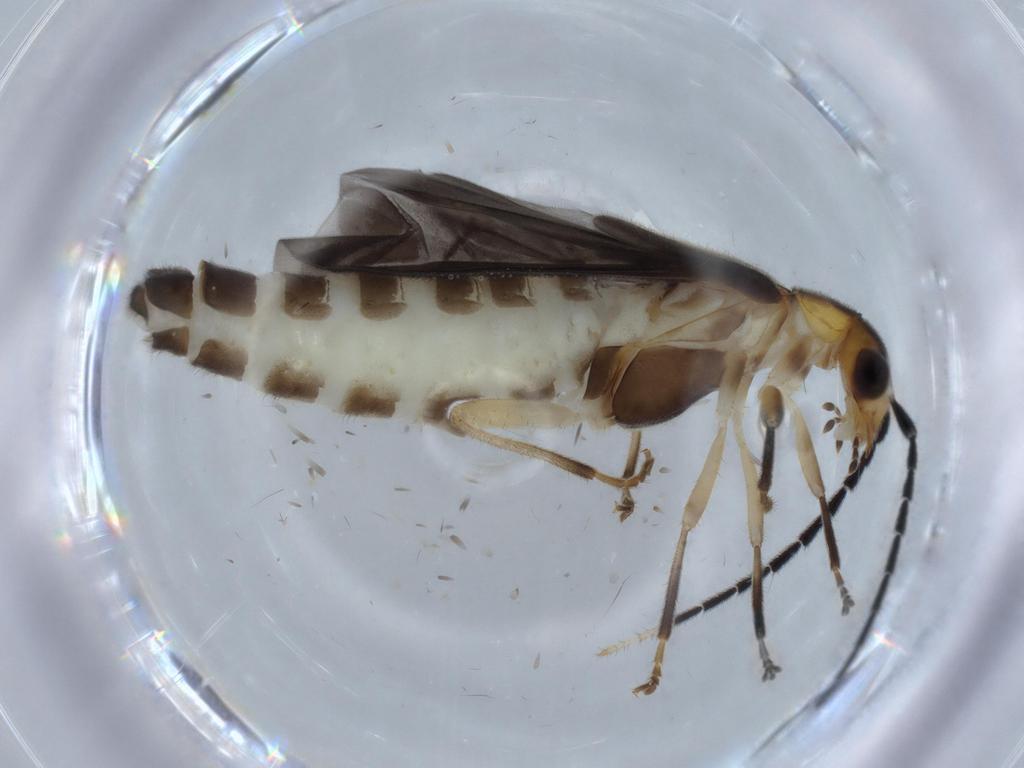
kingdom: Animalia
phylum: Arthropoda
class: Insecta
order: Coleoptera
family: Cantharidae
